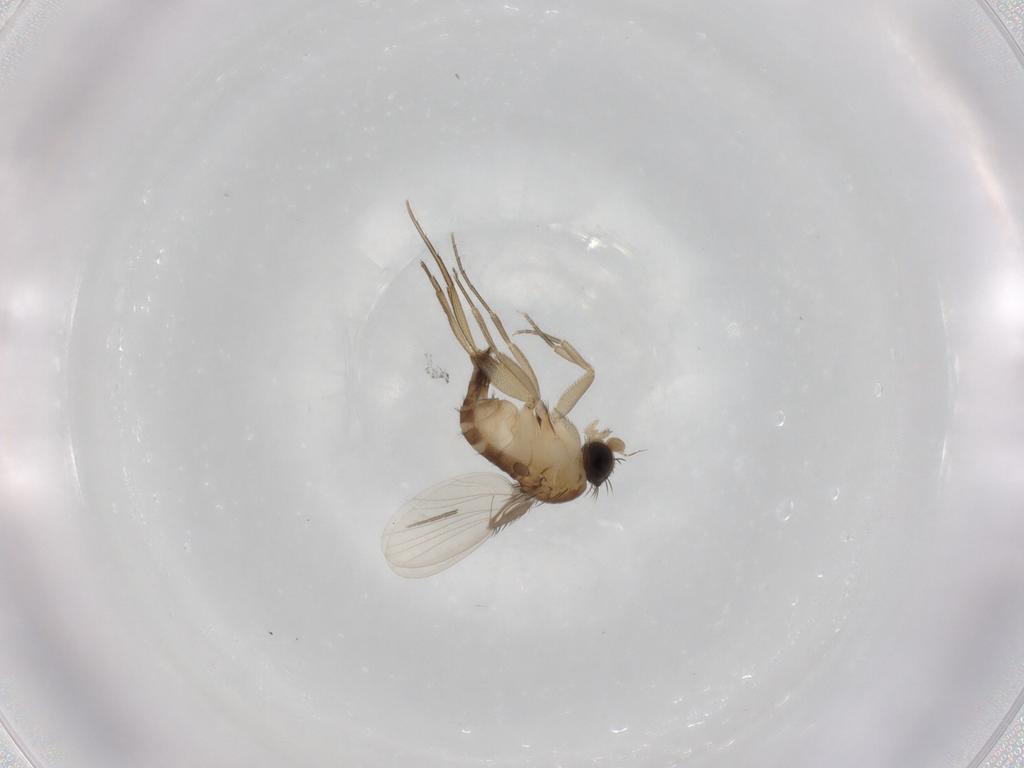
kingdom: Animalia
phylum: Arthropoda
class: Insecta
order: Diptera
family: Phoridae
